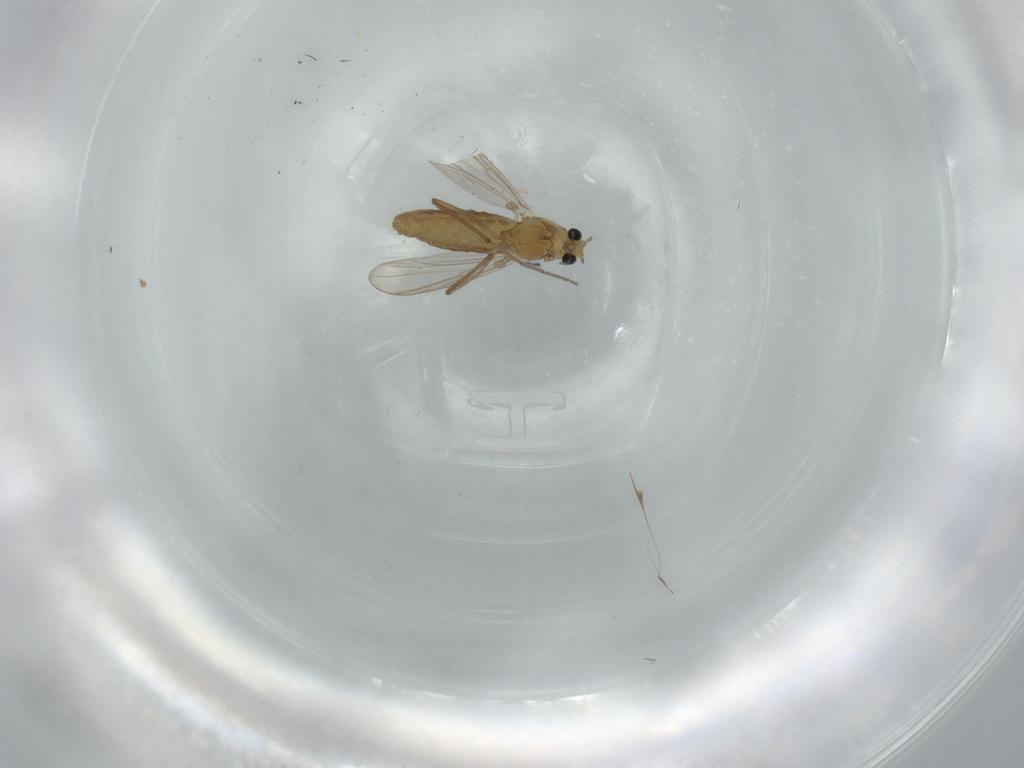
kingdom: Animalia
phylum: Arthropoda
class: Insecta
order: Diptera
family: Chironomidae
